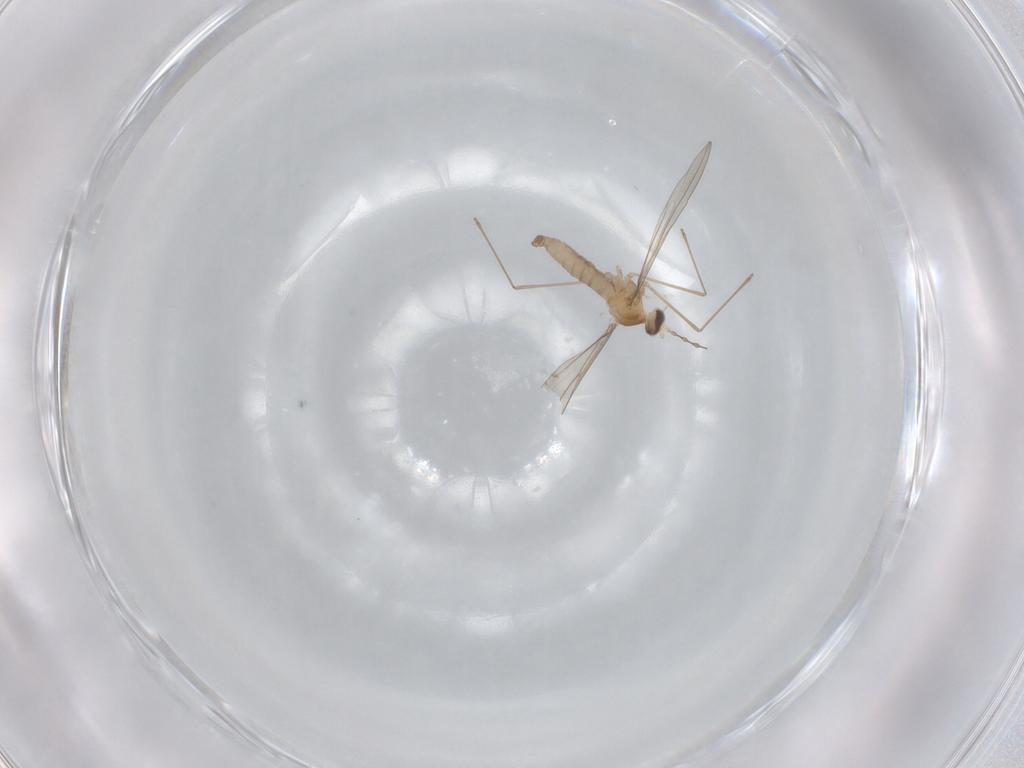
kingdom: Animalia
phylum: Arthropoda
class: Insecta
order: Diptera
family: Cecidomyiidae
